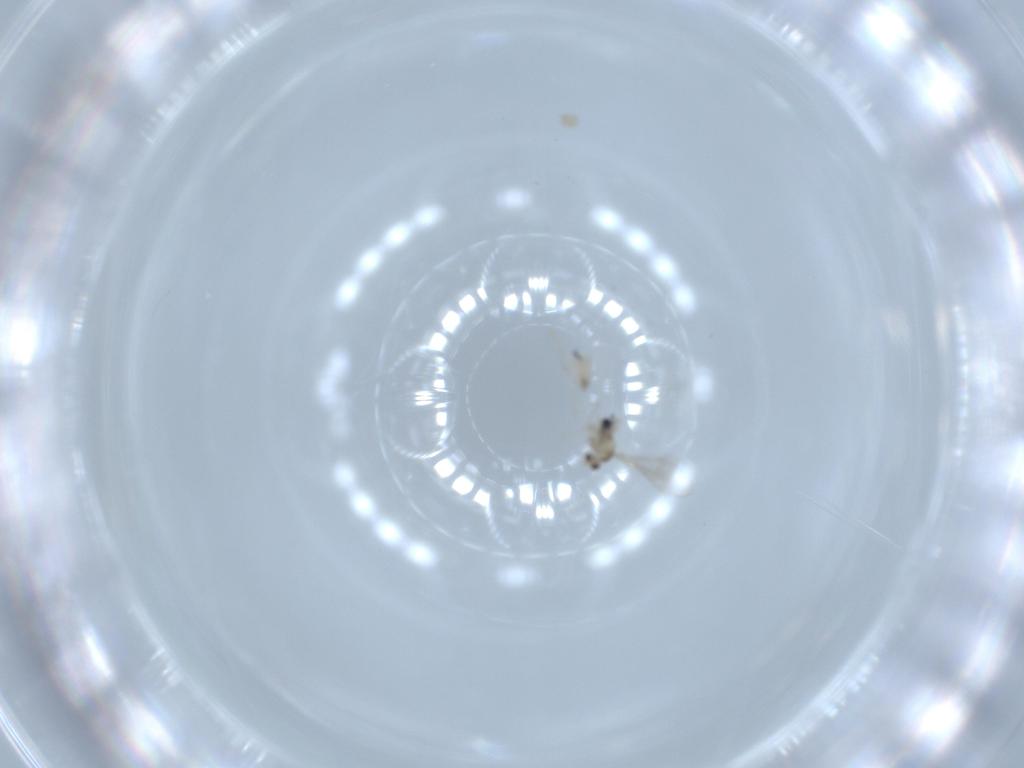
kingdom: Animalia
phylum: Arthropoda
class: Insecta
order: Diptera
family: Cecidomyiidae
